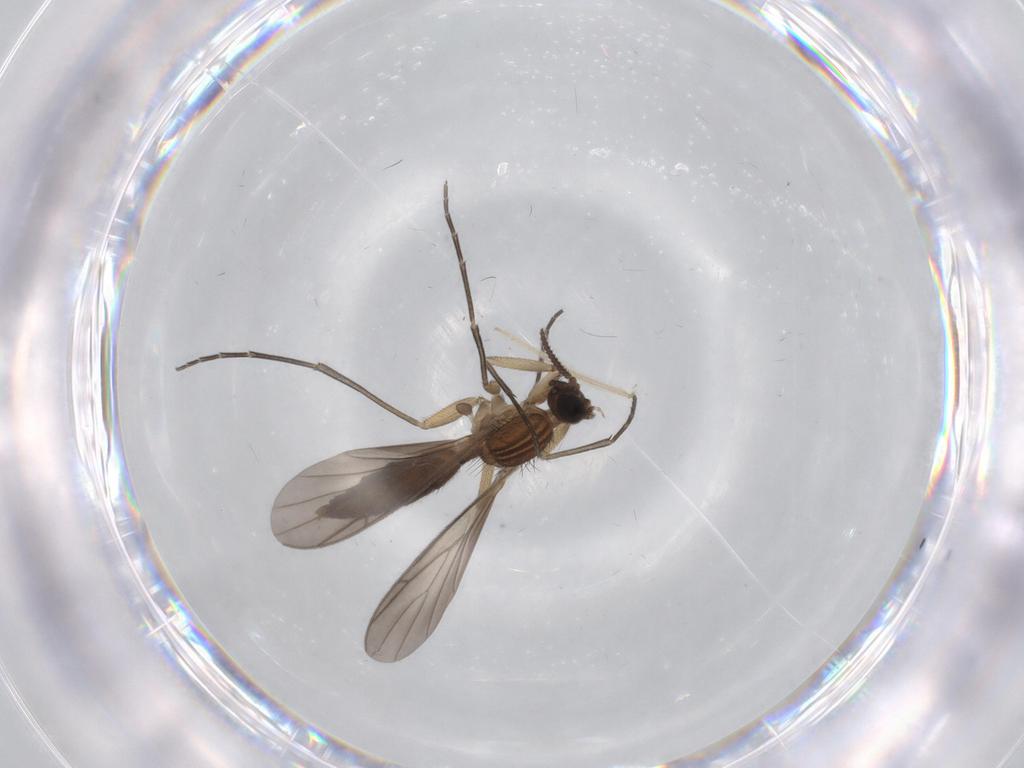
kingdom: Animalia
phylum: Arthropoda
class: Insecta
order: Diptera
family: Keroplatidae
